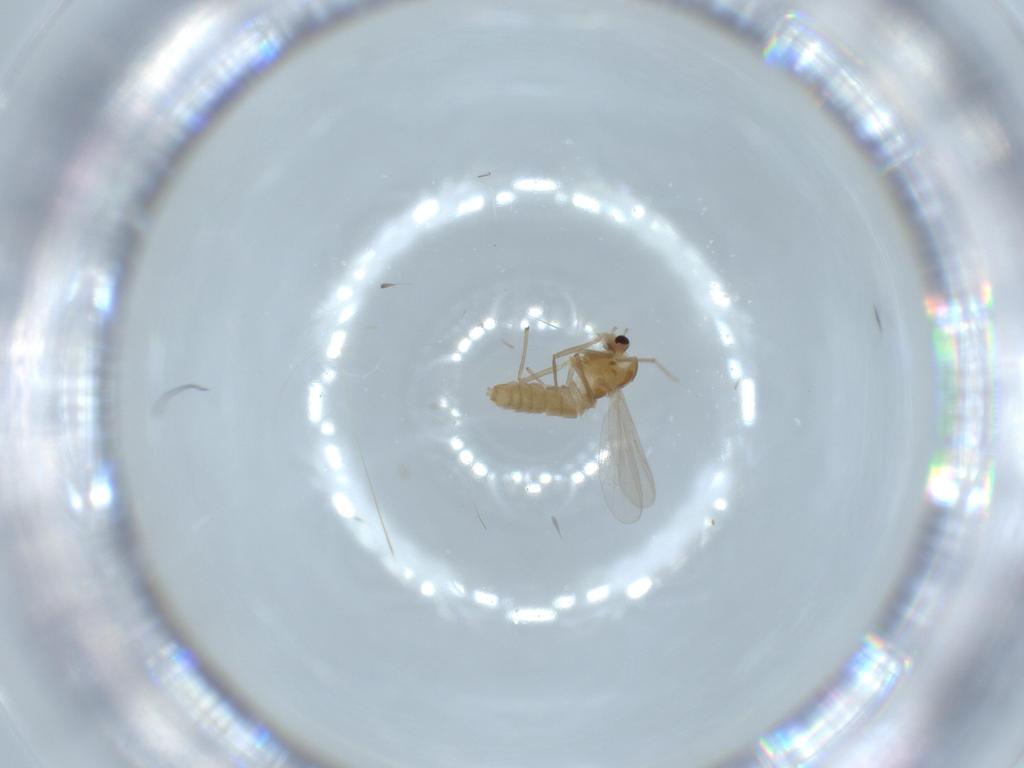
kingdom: Animalia
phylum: Arthropoda
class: Insecta
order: Diptera
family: Chironomidae
